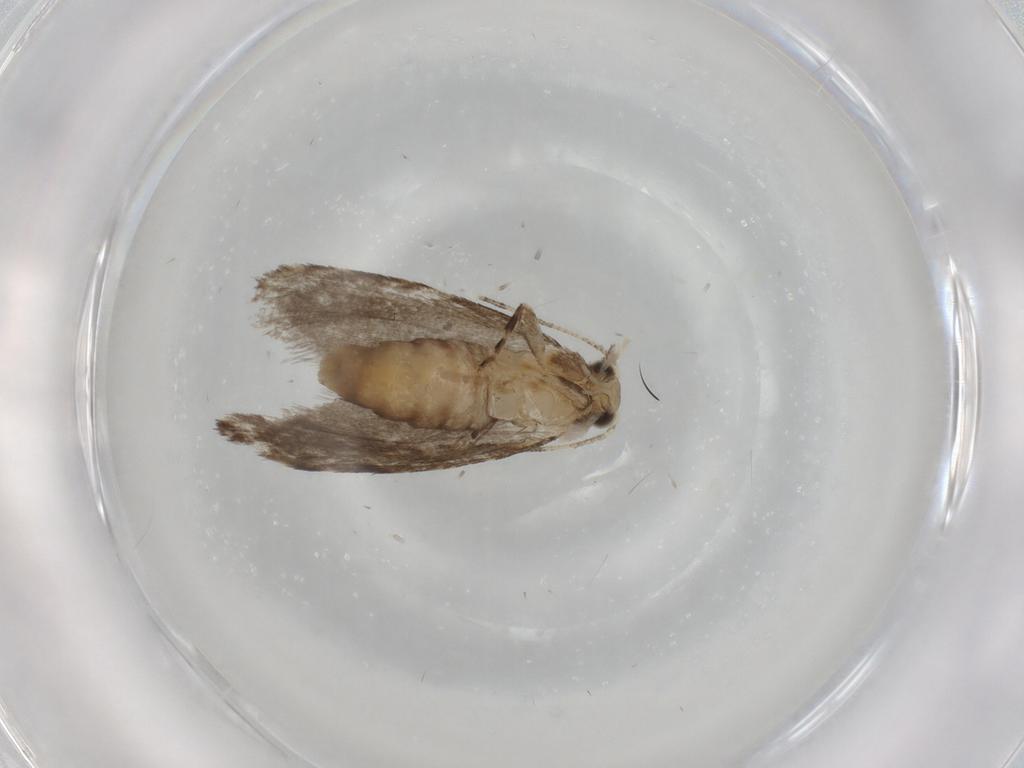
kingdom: Animalia
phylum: Arthropoda
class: Insecta
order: Lepidoptera
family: Tineidae
